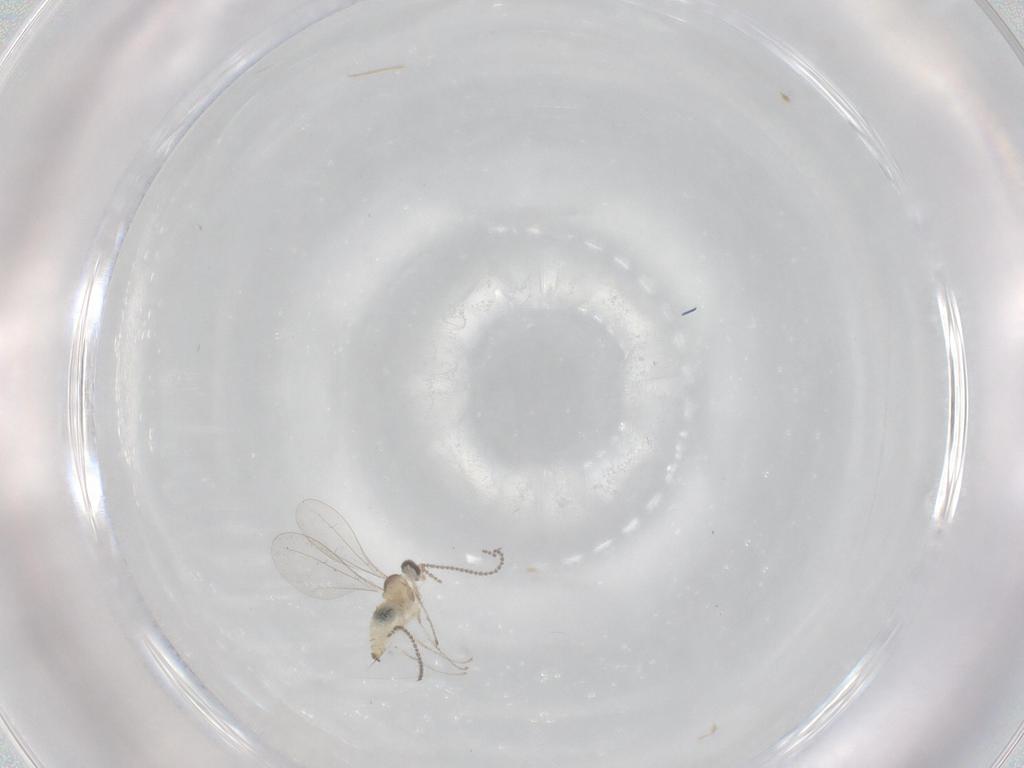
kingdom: Animalia
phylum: Arthropoda
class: Insecta
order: Diptera
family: Cecidomyiidae
